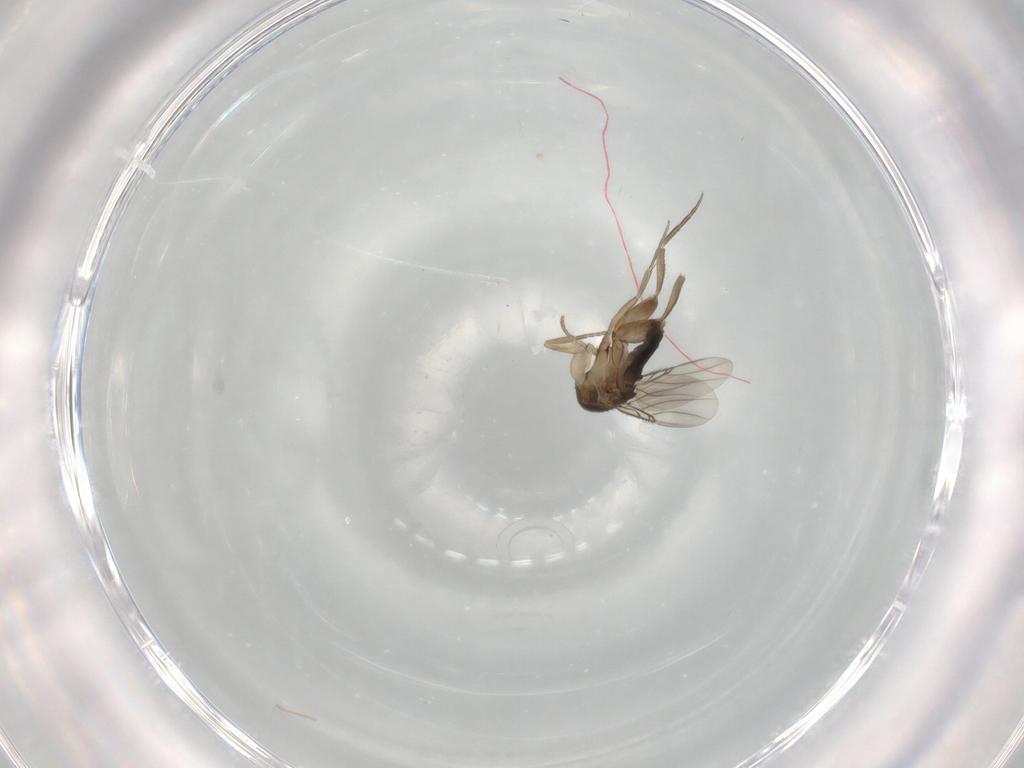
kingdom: Animalia
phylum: Arthropoda
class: Insecta
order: Diptera
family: Phoridae
